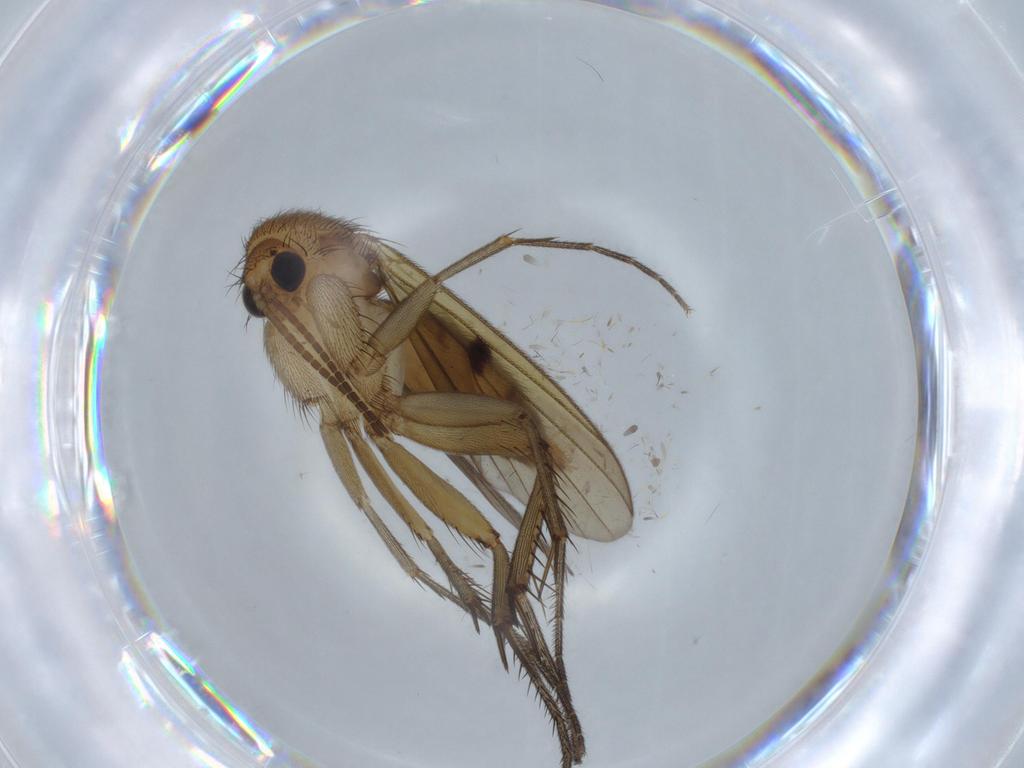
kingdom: Animalia
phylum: Arthropoda
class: Insecta
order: Diptera
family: Mycetophilidae
